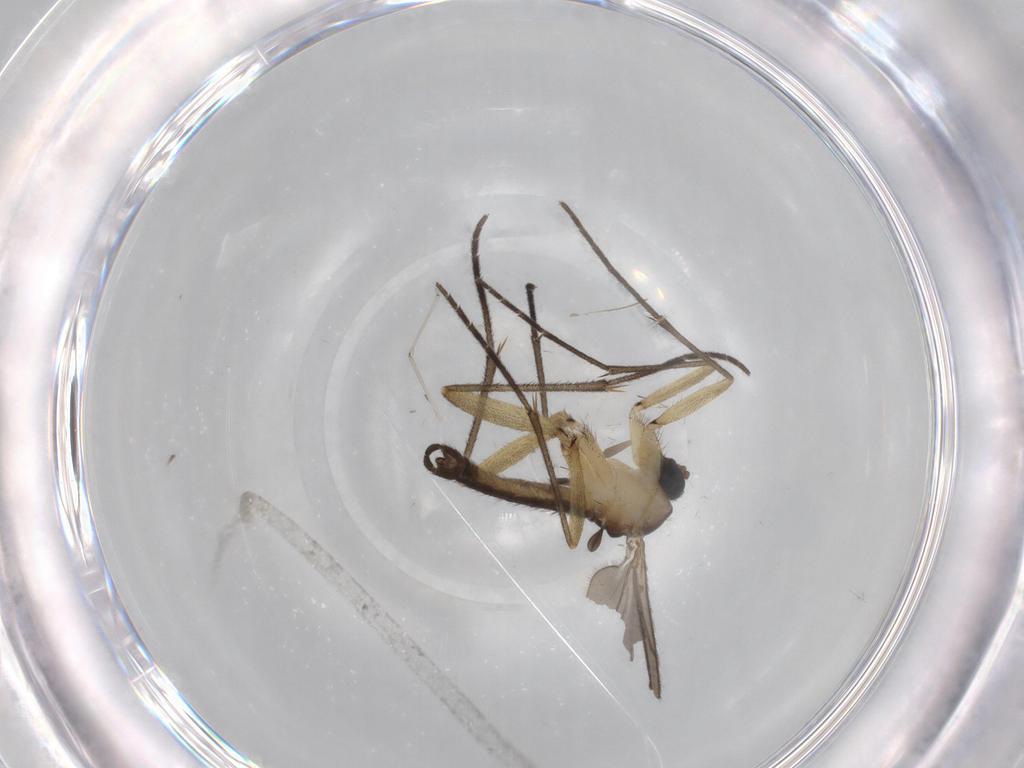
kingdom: Animalia
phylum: Arthropoda
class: Insecta
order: Diptera
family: Sciaridae
